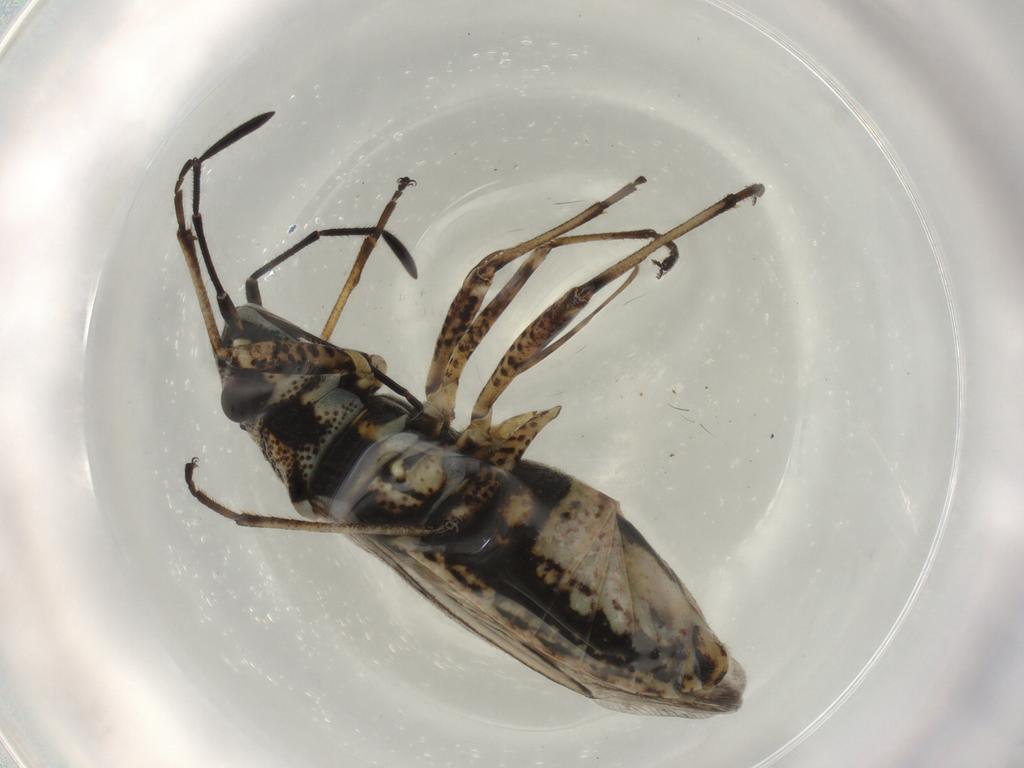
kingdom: Animalia
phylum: Arthropoda
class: Insecta
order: Hemiptera
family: Lygaeidae
